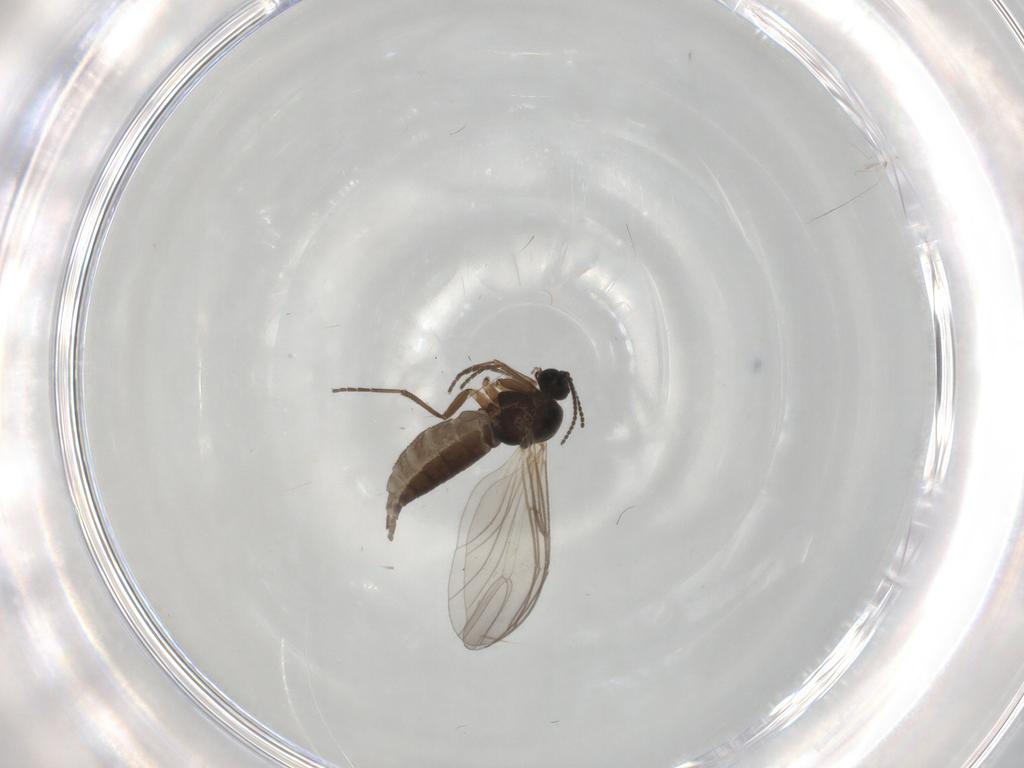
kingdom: Animalia
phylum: Arthropoda
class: Insecta
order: Diptera
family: Sciaridae
